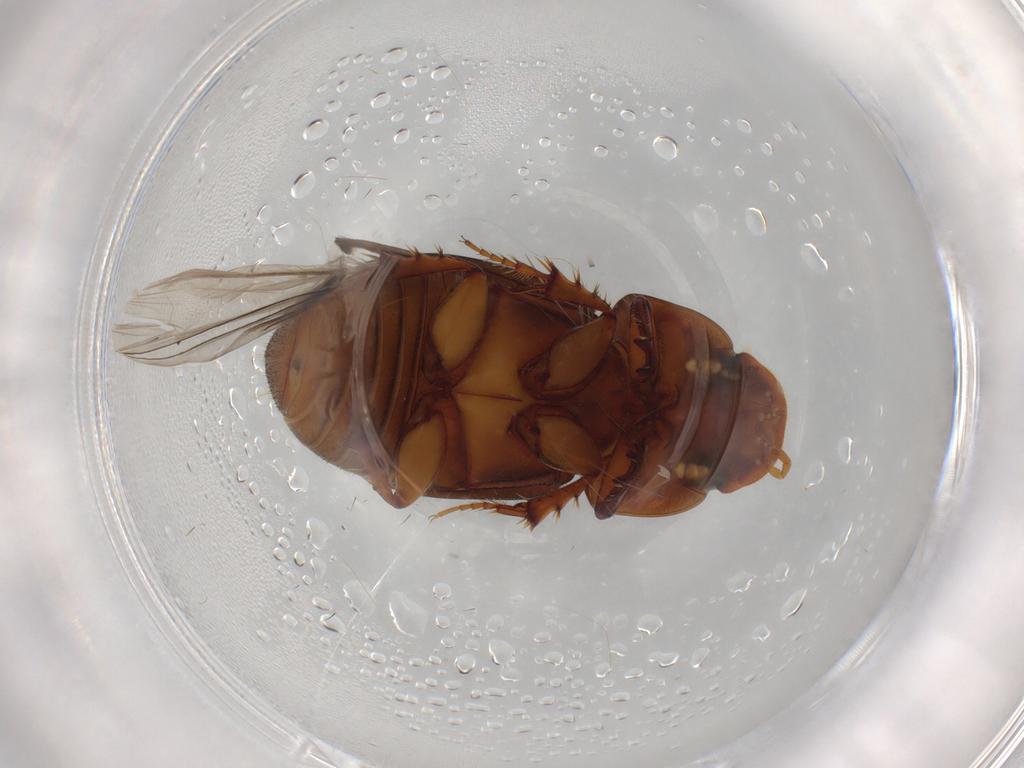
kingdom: Animalia
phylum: Arthropoda
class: Insecta
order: Coleoptera
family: Scarabaeidae
